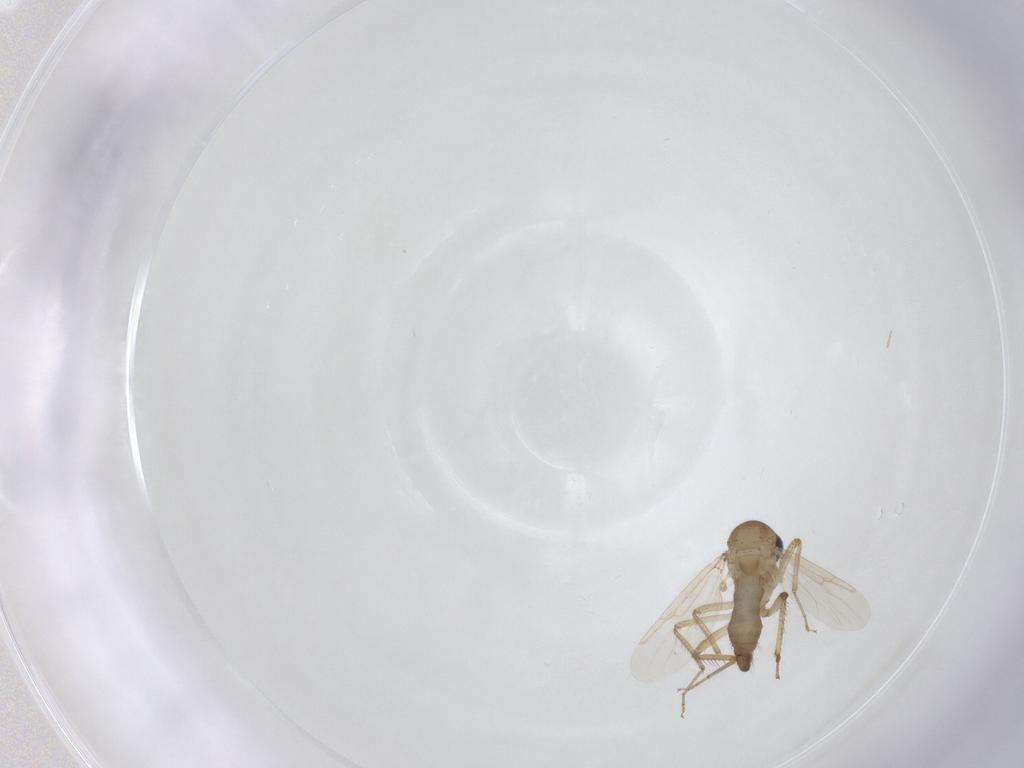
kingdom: Animalia
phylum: Arthropoda
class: Insecta
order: Diptera
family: Ceratopogonidae
